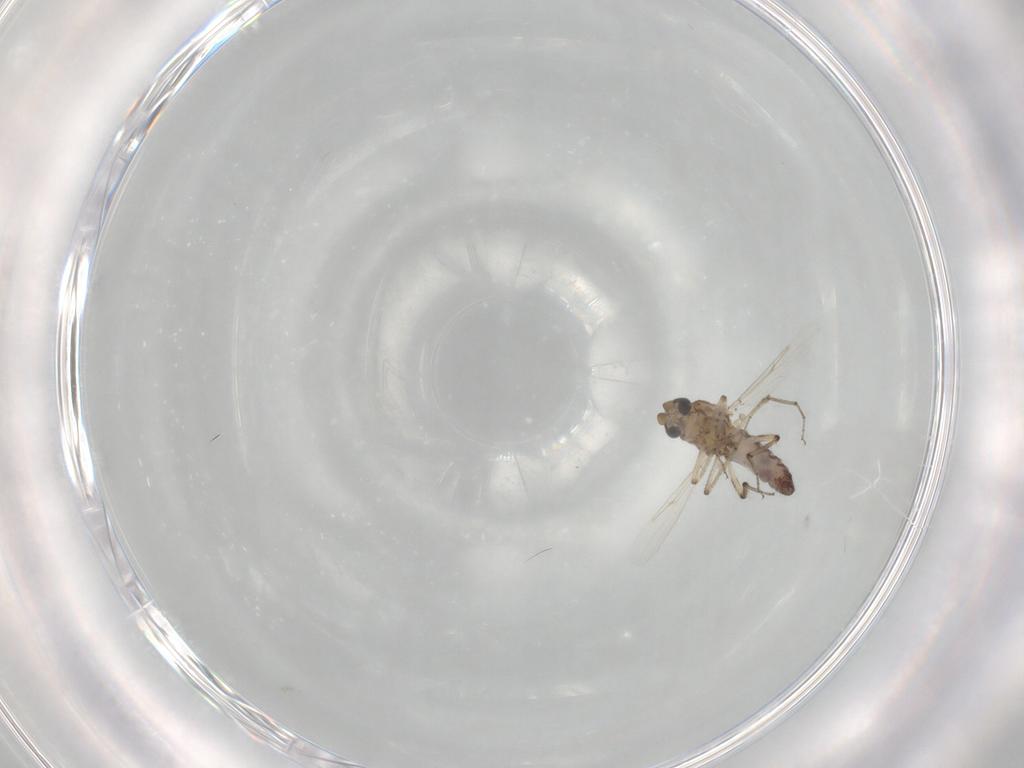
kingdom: Animalia
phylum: Arthropoda
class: Insecta
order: Diptera
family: Ceratopogonidae
